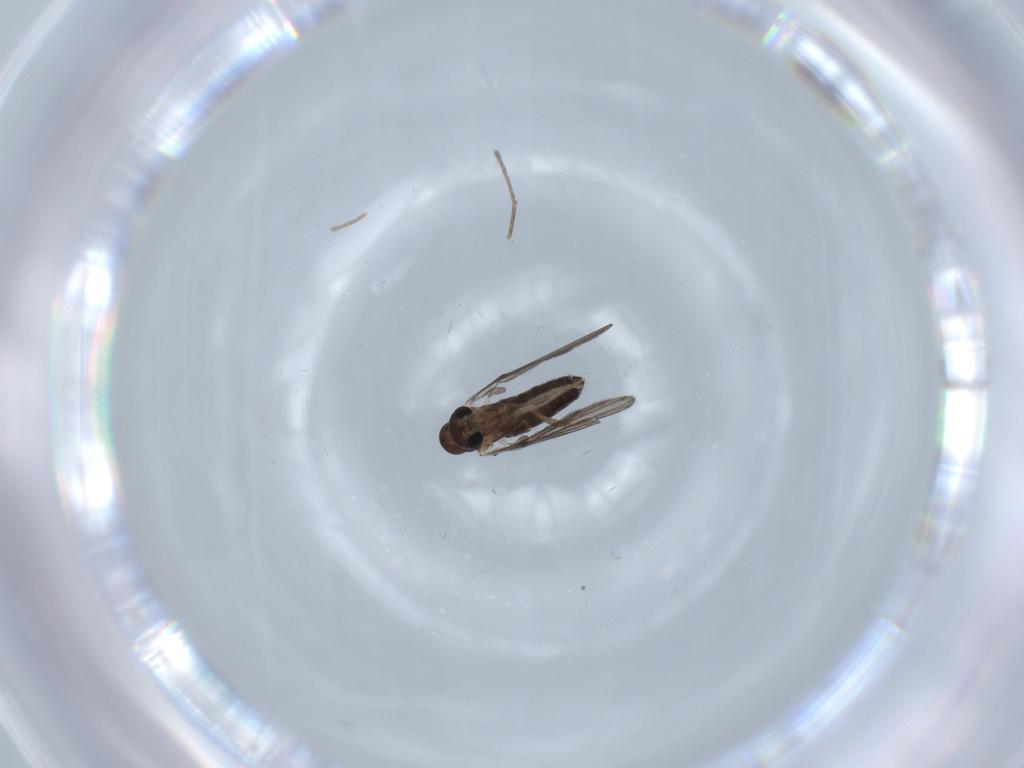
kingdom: Animalia
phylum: Arthropoda
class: Insecta
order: Diptera
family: Psychodidae
